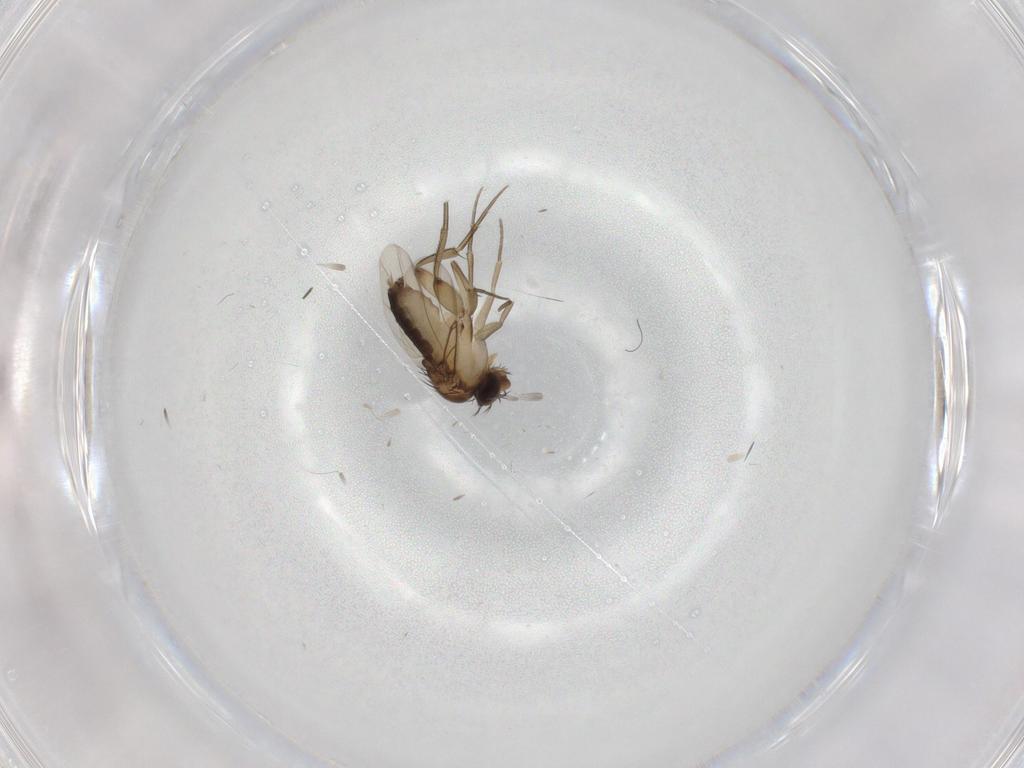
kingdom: Animalia
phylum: Arthropoda
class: Insecta
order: Diptera
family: Phoridae
